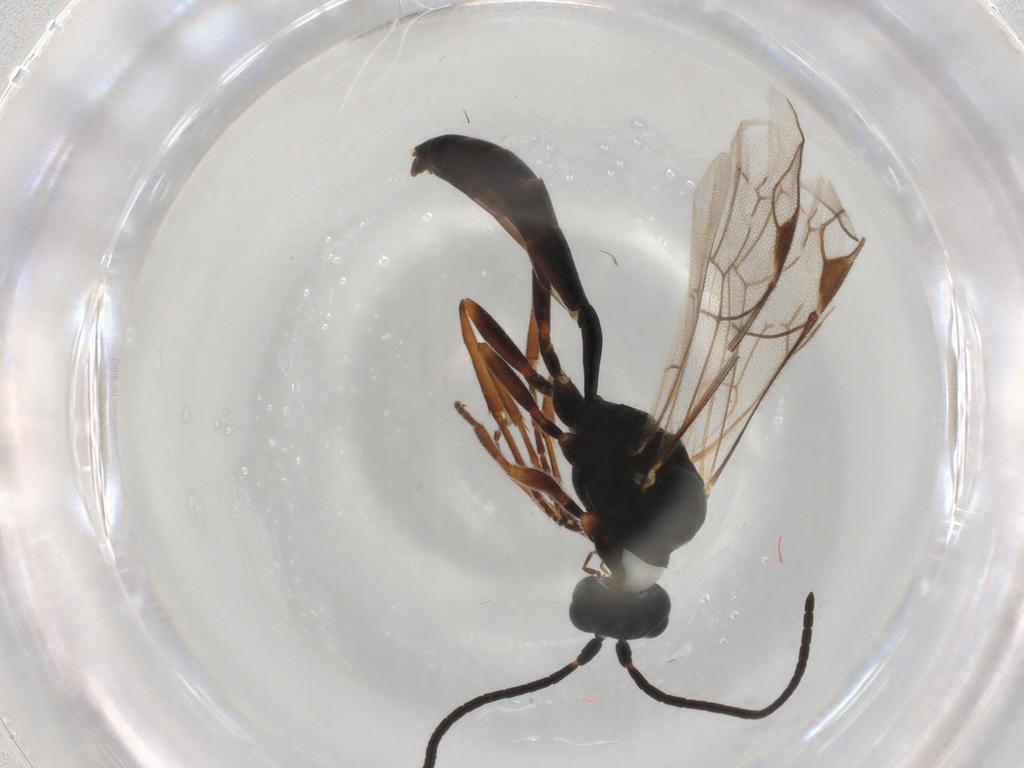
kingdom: Animalia
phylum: Arthropoda
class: Insecta
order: Hymenoptera
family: Ichneumonidae
